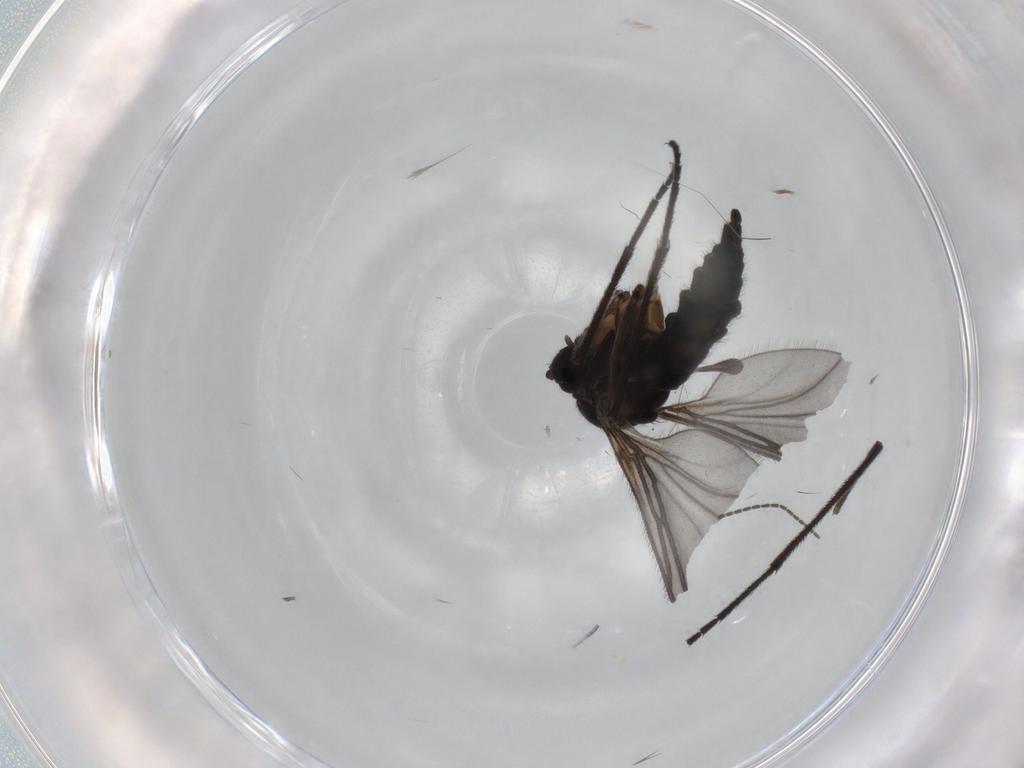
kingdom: Animalia
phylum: Arthropoda
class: Insecta
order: Diptera
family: Sciaridae
